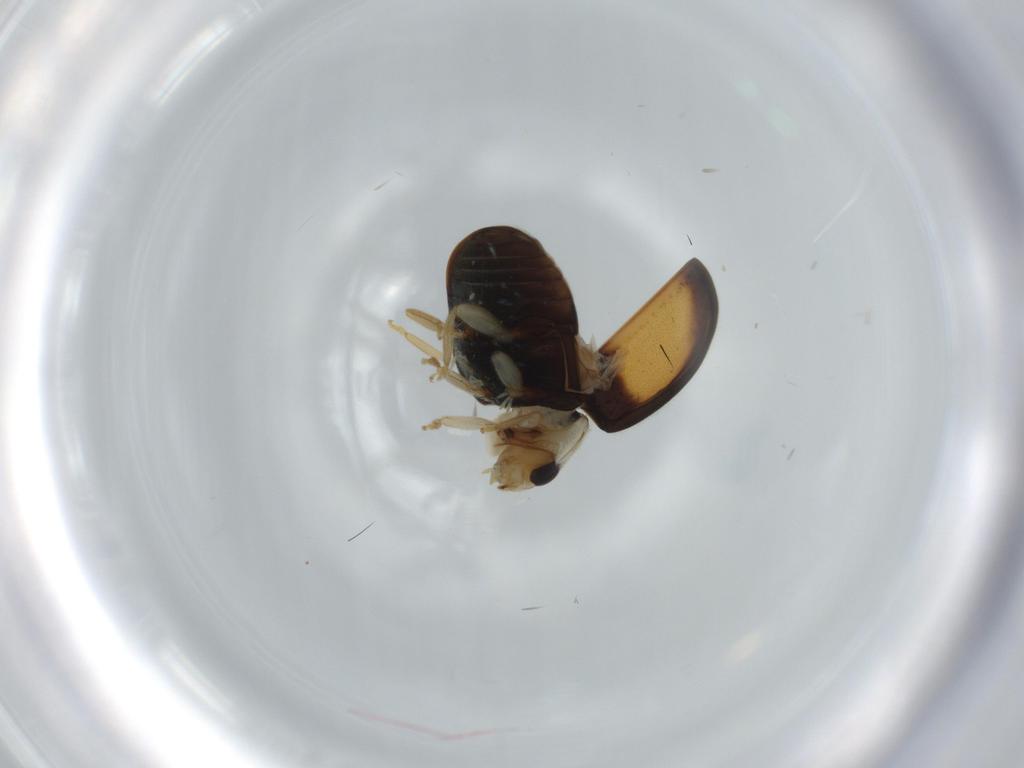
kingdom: Animalia
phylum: Arthropoda
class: Insecta
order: Coleoptera
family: Coccinellidae
